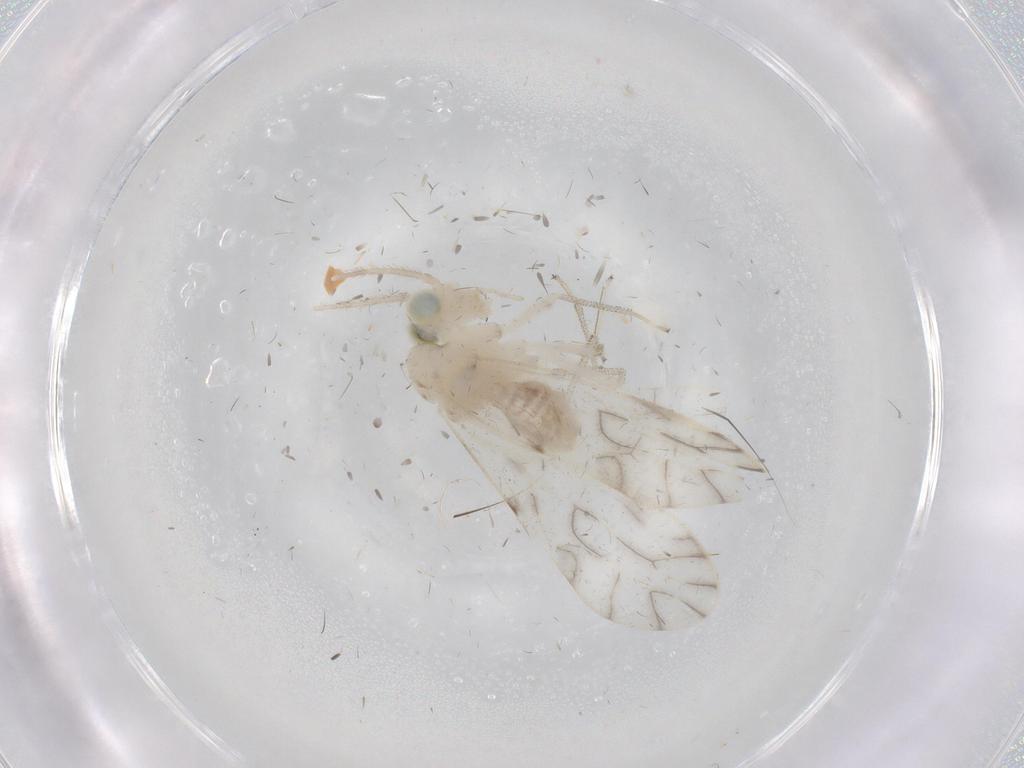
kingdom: Animalia
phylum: Arthropoda
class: Insecta
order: Psocodea
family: Caeciliusidae
